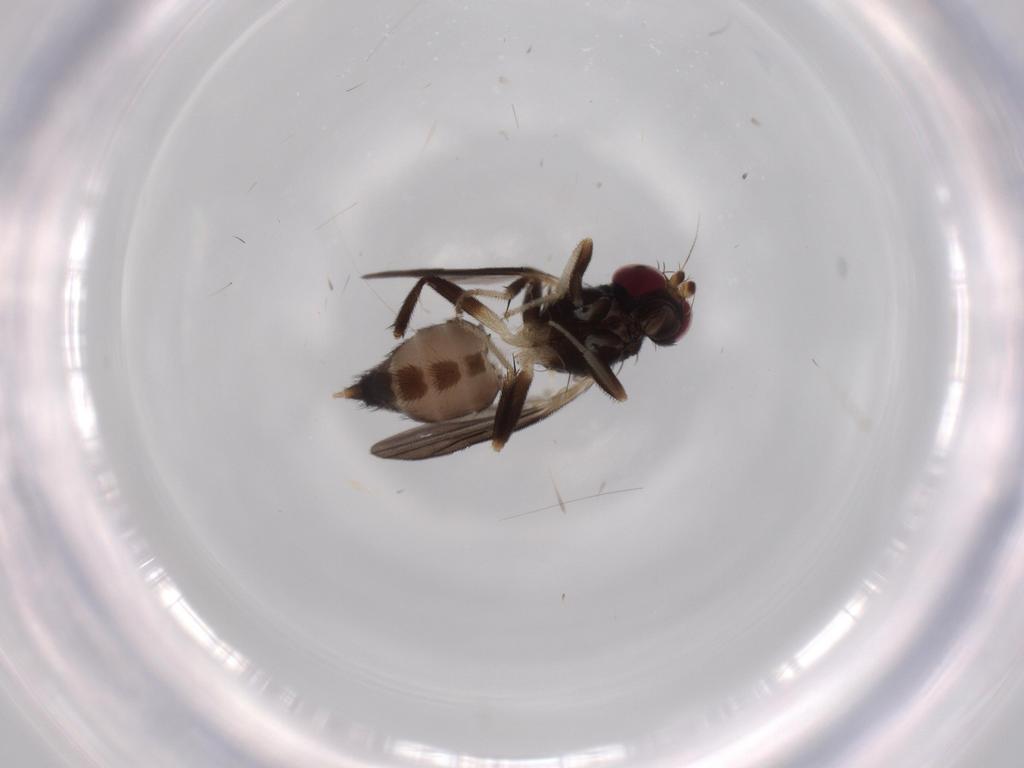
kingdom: Animalia
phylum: Arthropoda
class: Insecta
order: Diptera
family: Sciaridae
